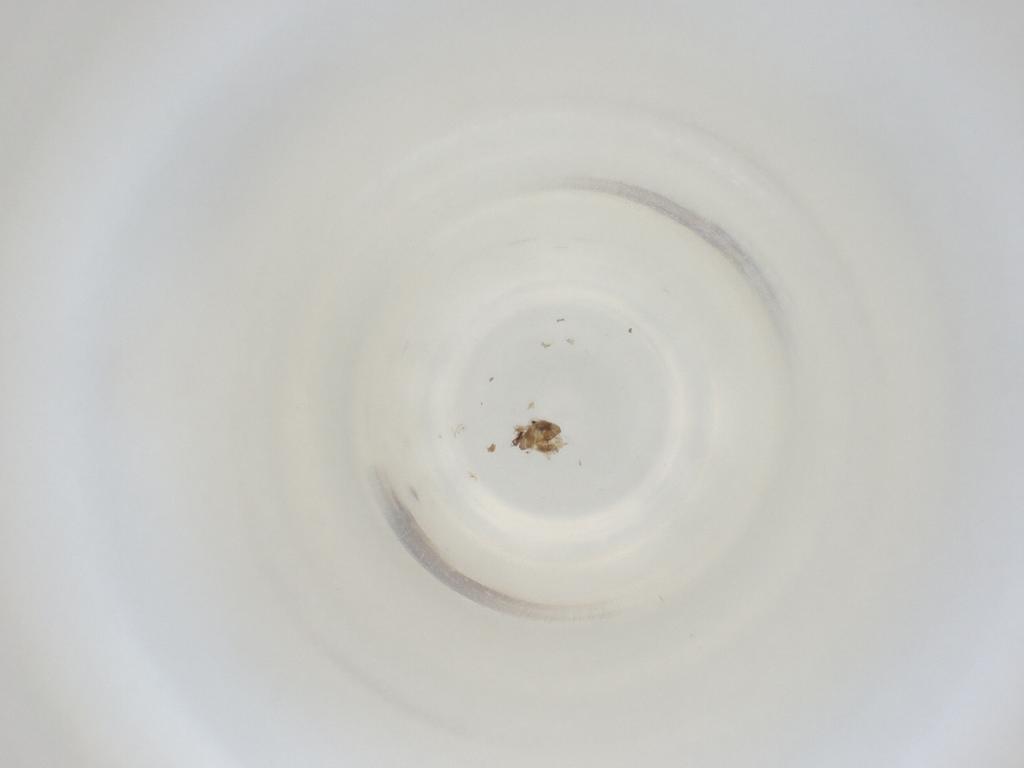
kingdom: Animalia
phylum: Arthropoda
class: Insecta
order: Diptera
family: Cecidomyiidae
